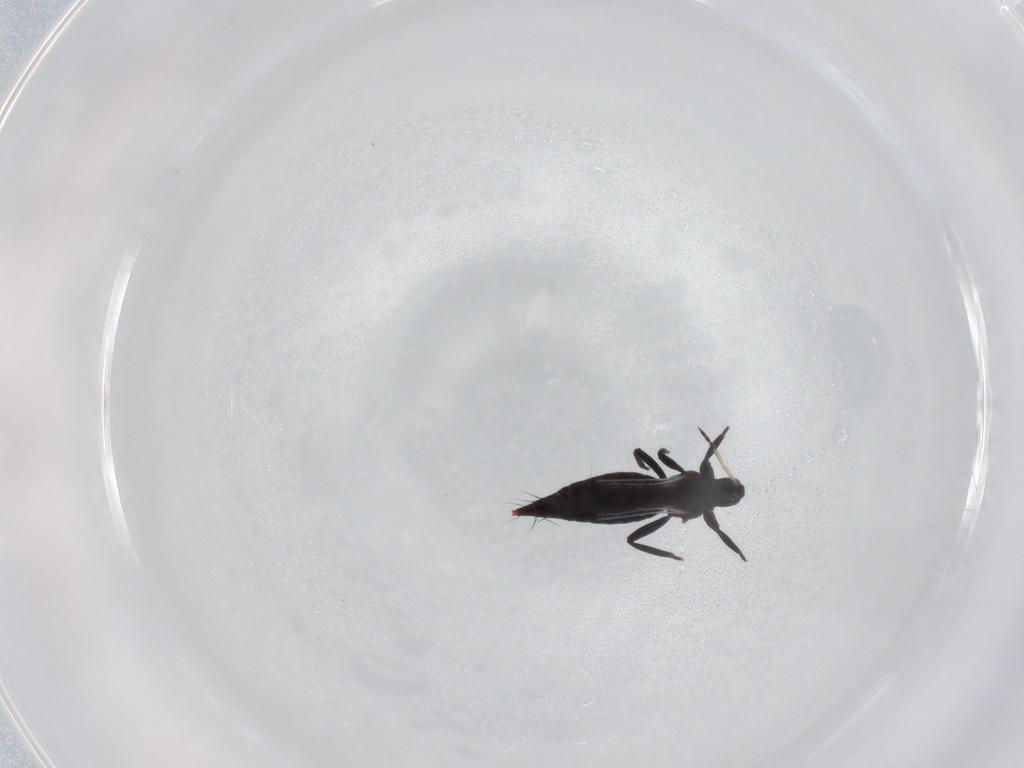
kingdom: Animalia
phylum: Arthropoda
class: Insecta
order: Thysanoptera
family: Aeolothripidae
